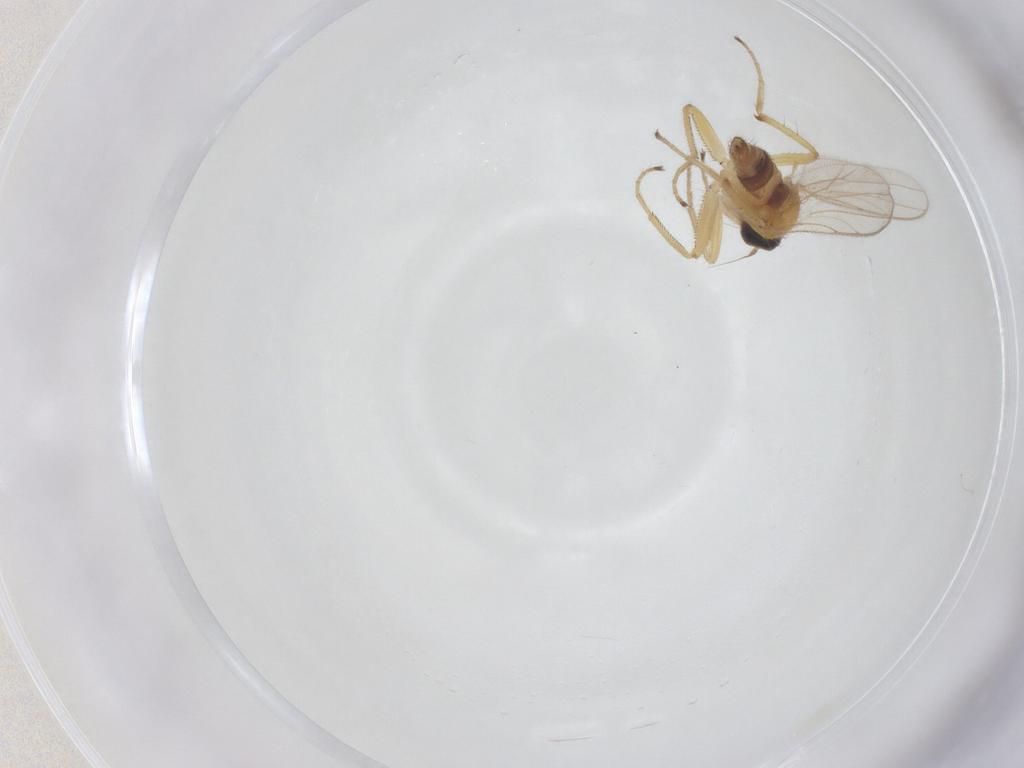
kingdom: Animalia
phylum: Arthropoda
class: Insecta
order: Diptera
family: Hybotidae
